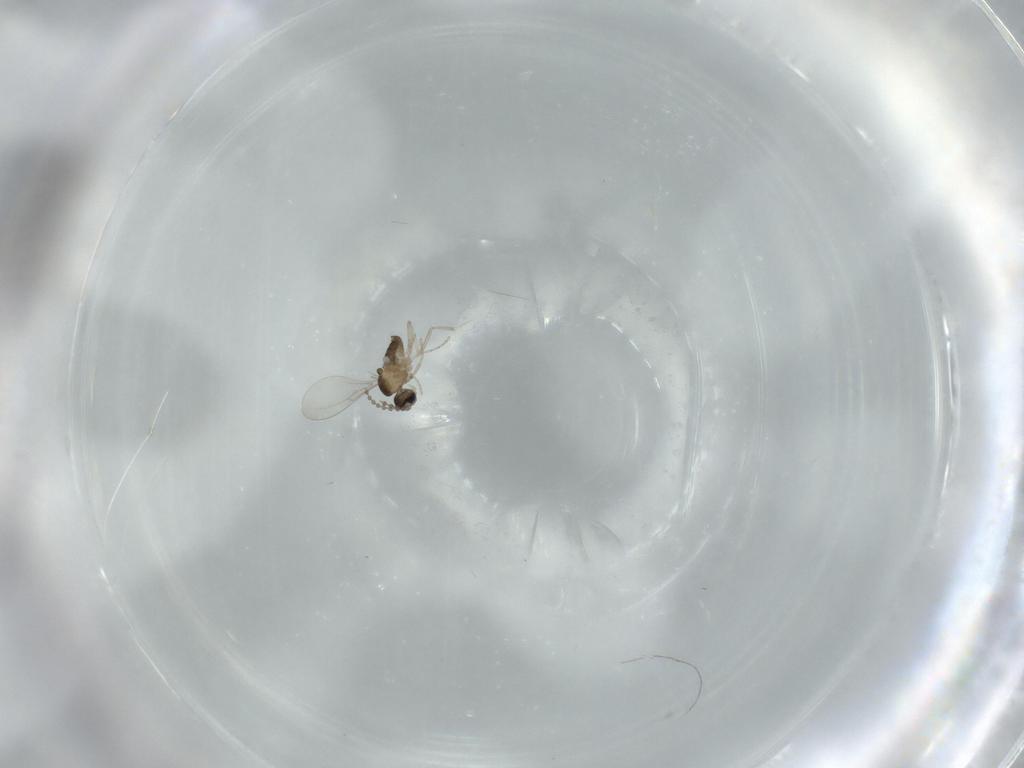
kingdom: Animalia
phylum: Arthropoda
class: Insecta
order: Diptera
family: Cecidomyiidae
